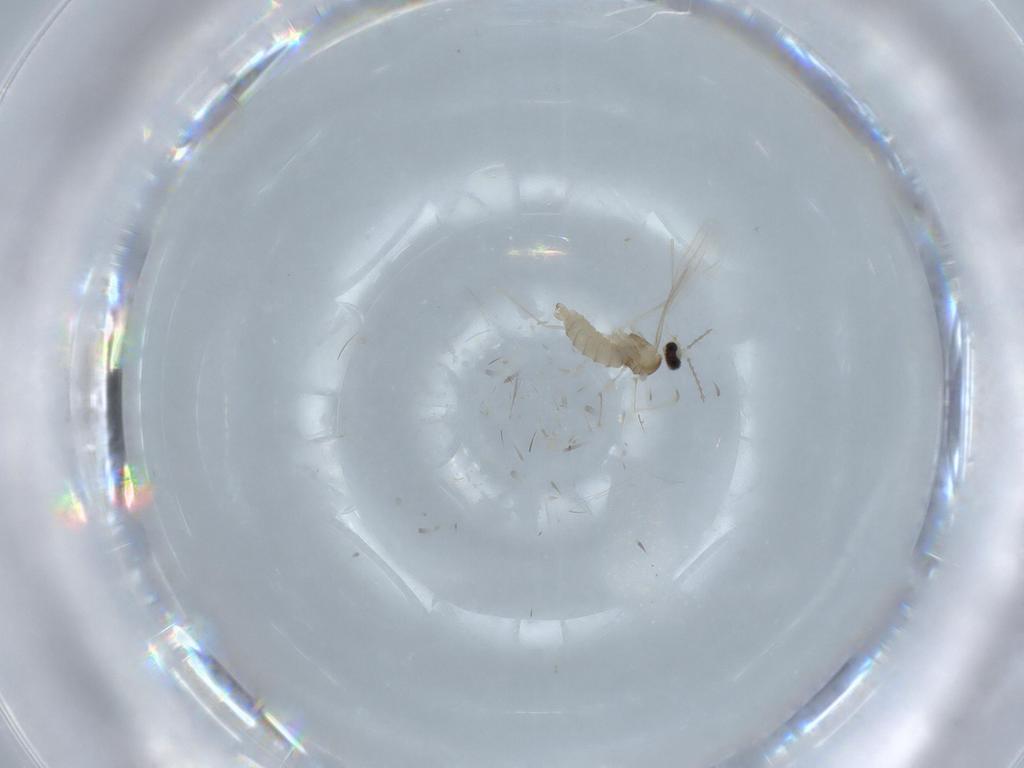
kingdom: Animalia
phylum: Arthropoda
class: Insecta
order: Diptera
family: Cecidomyiidae
